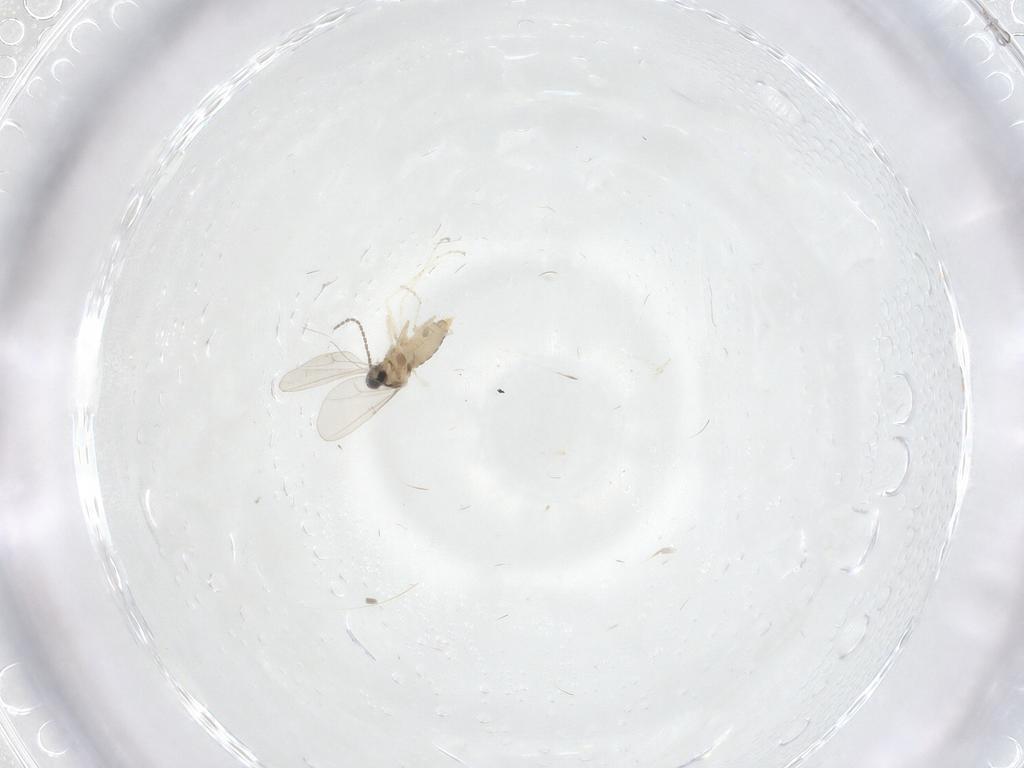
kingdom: Animalia
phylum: Arthropoda
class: Insecta
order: Diptera
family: Cecidomyiidae
